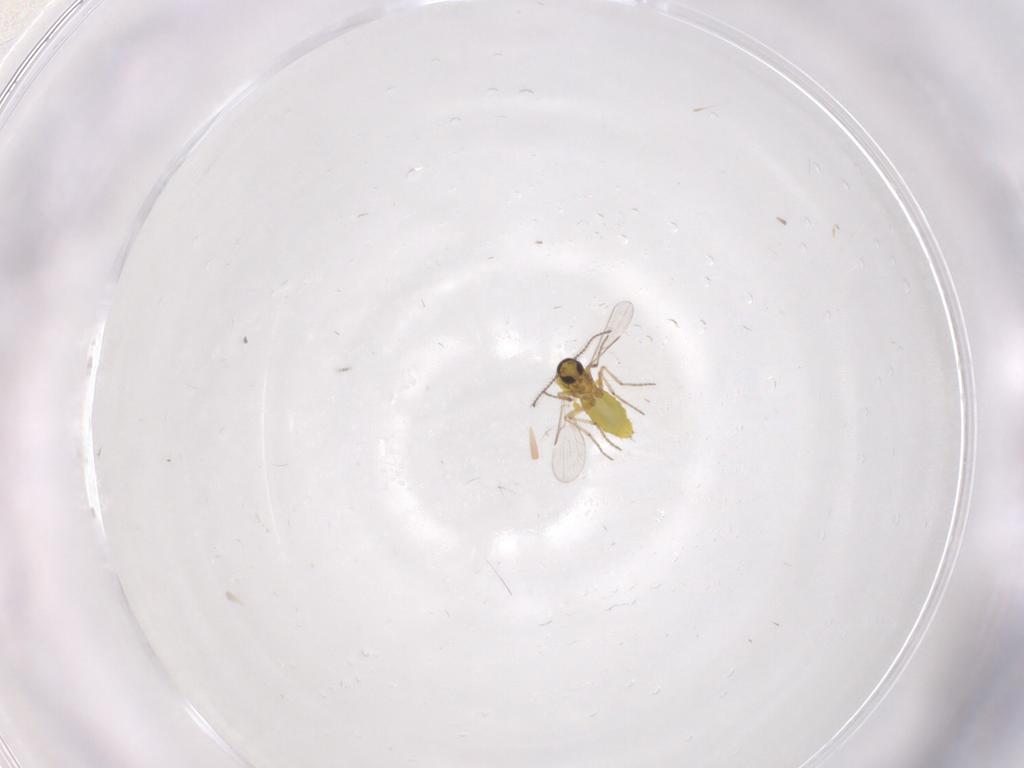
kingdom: Animalia
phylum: Arthropoda
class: Insecta
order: Diptera
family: Ceratopogonidae
